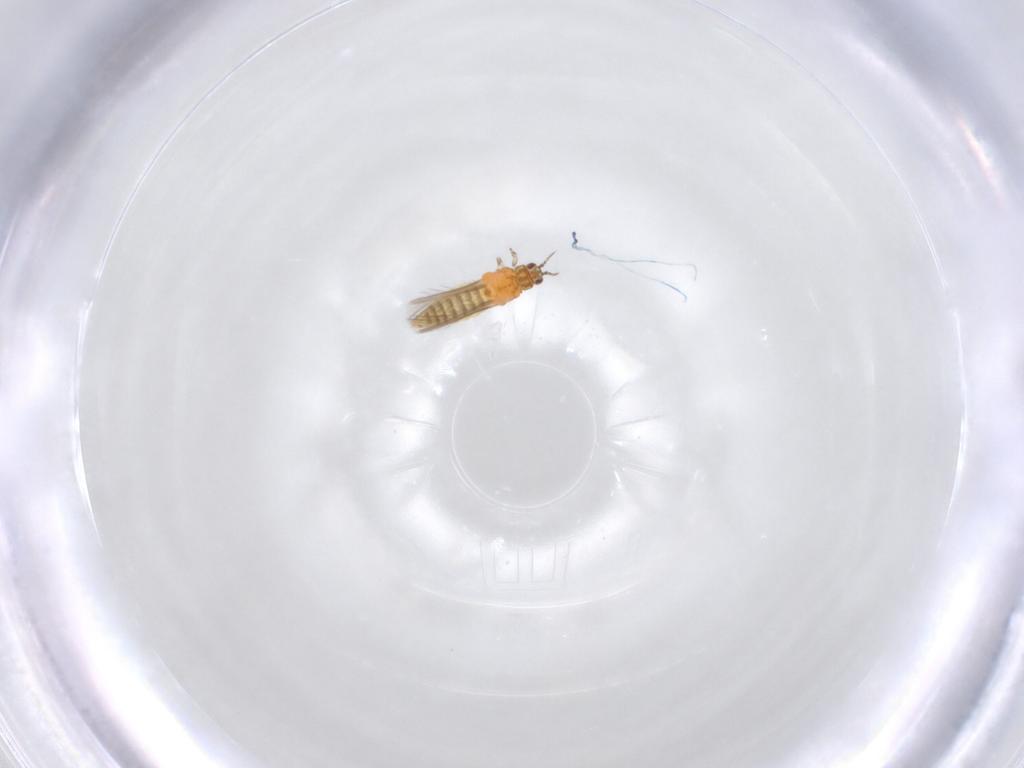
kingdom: Animalia
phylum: Arthropoda
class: Insecta
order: Thysanoptera
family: Thripidae
